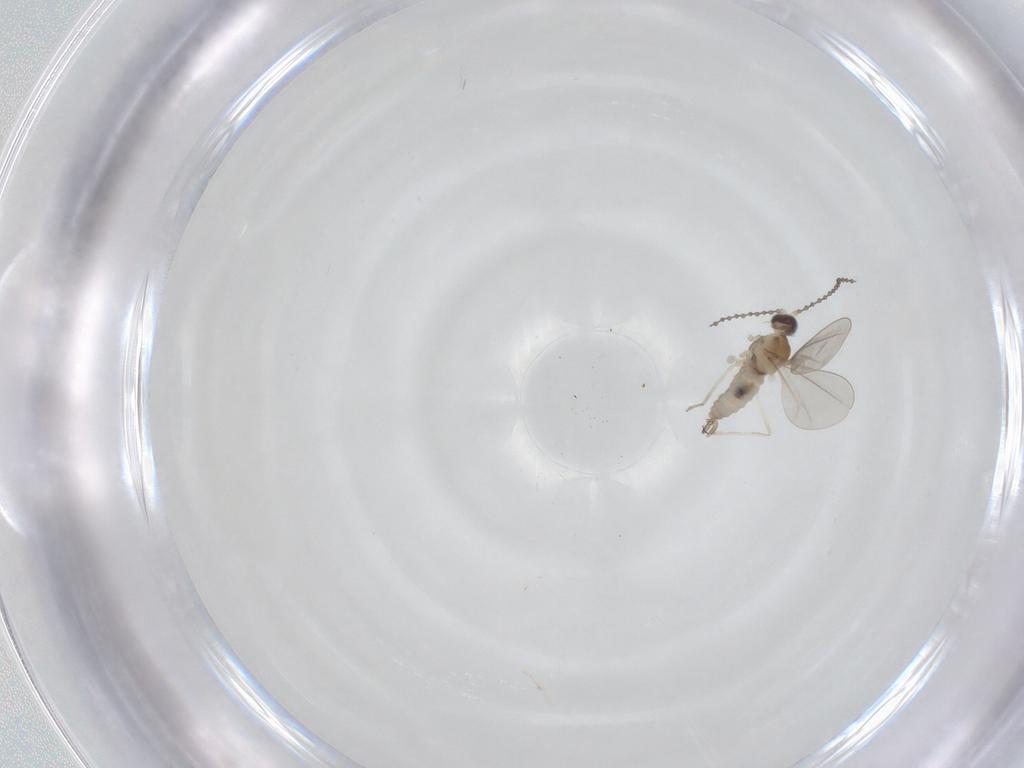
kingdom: Animalia
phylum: Arthropoda
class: Insecta
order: Diptera
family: Cecidomyiidae
